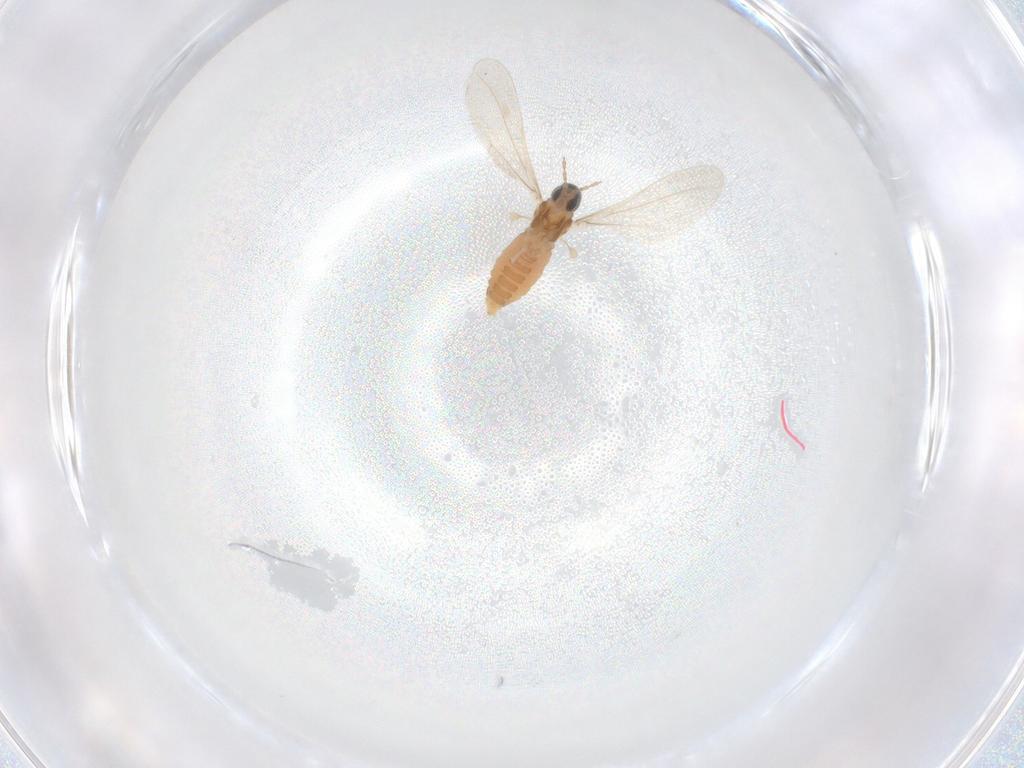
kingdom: Animalia
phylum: Arthropoda
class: Insecta
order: Diptera
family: Cecidomyiidae
